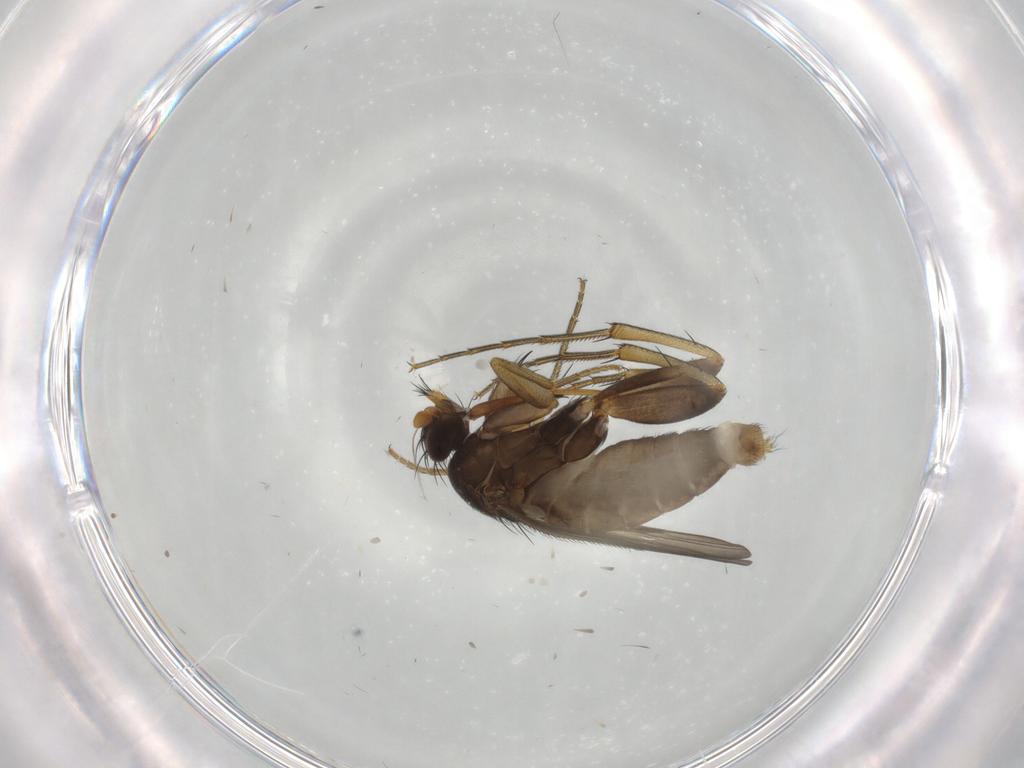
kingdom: Animalia
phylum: Arthropoda
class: Insecta
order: Diptera
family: Phoridae
